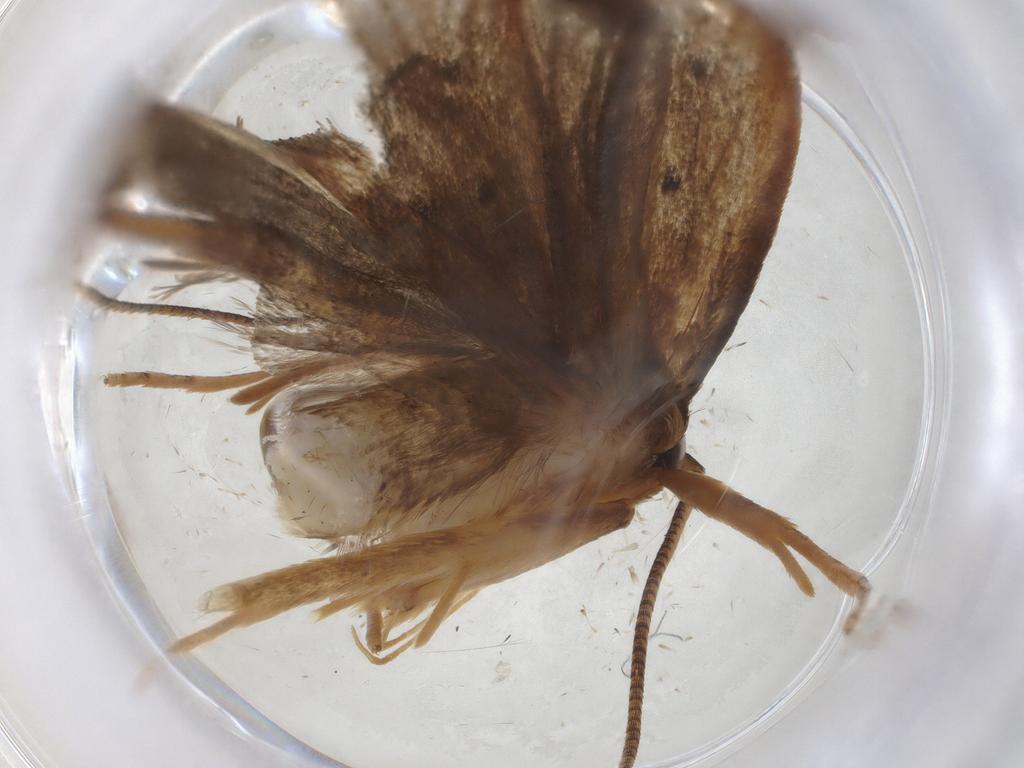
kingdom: Animalia
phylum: Arthropoda
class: Insecta
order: Lepidoptera
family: Gelechiidae
